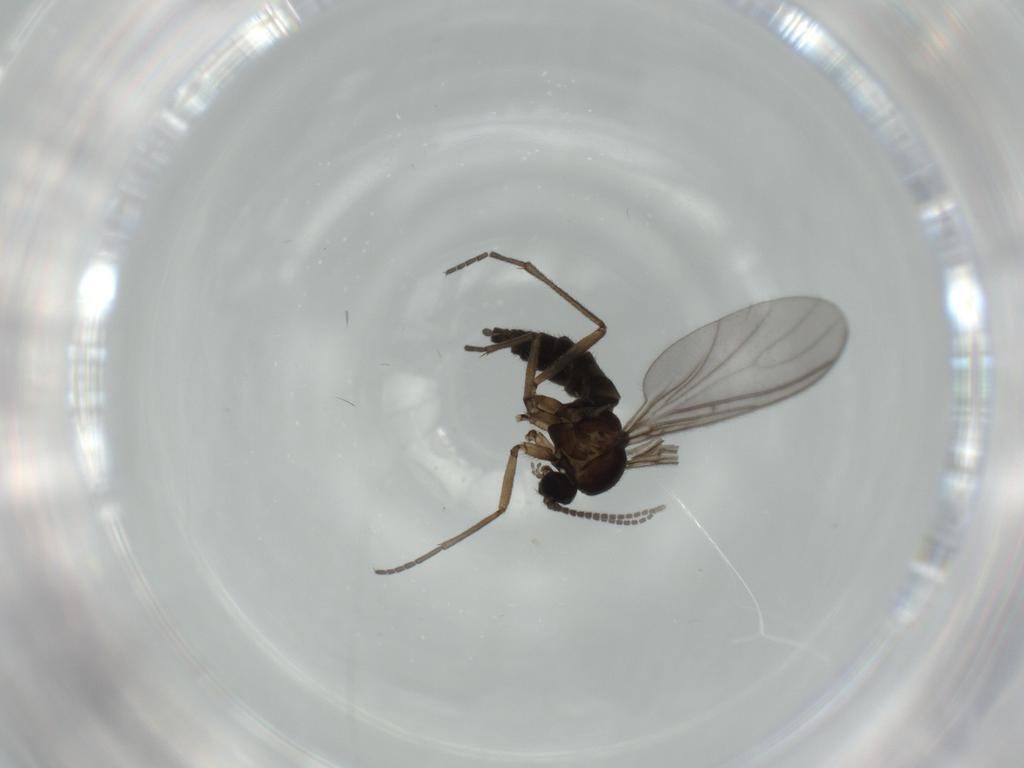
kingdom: Animalia
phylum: Arthropoda
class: Insecta
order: Diptera
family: Sciaridae
